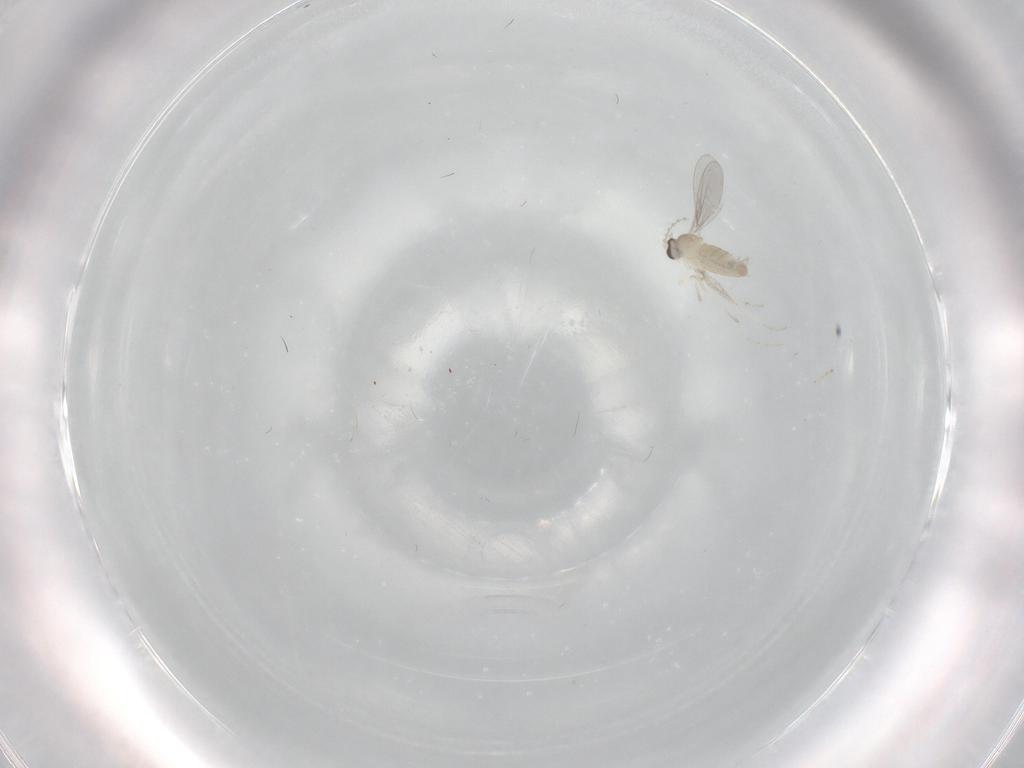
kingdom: Animalia
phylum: Arthropoda
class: Insecta
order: Diptera
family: Cecidomyiidae
